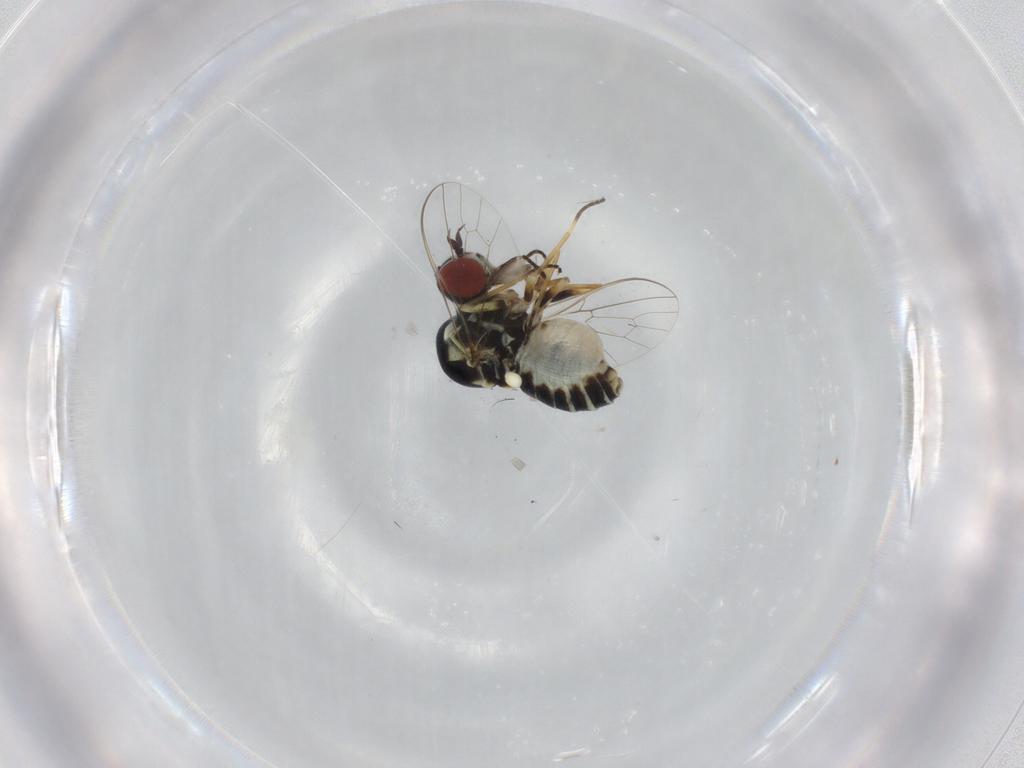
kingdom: Animalia
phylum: Arthropoda
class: Insecta
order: Diptera
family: Bombyliidae
